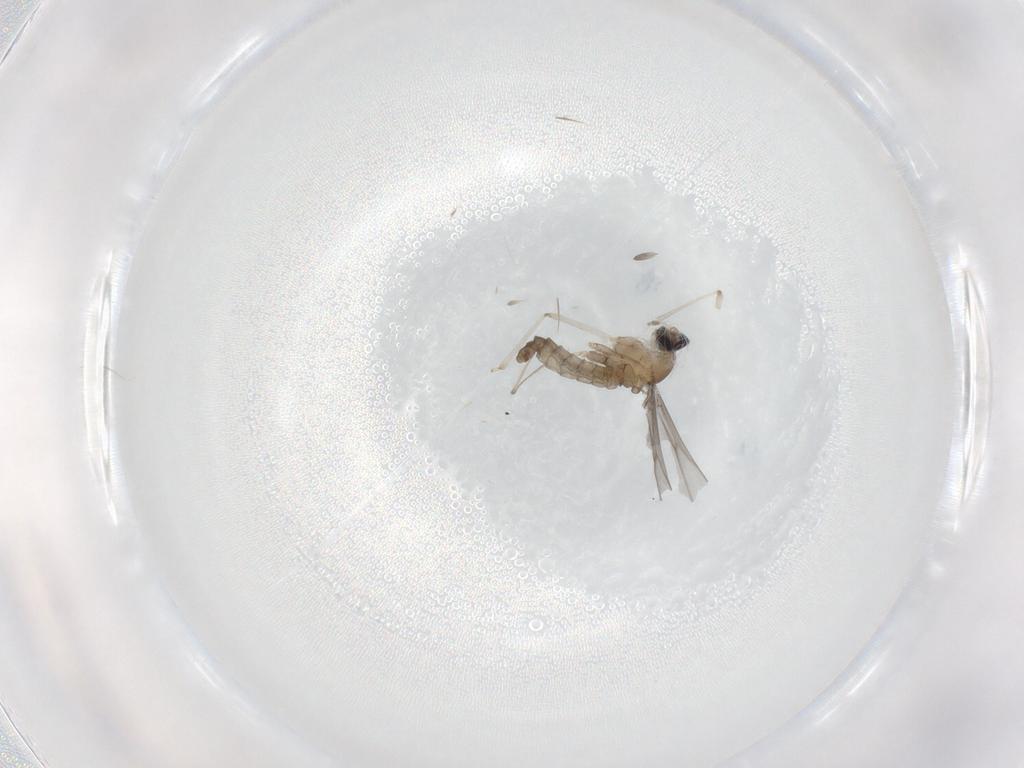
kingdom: Animalia
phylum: Arthropoda
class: Insecta
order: Diptera
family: Cecidomyiidae
